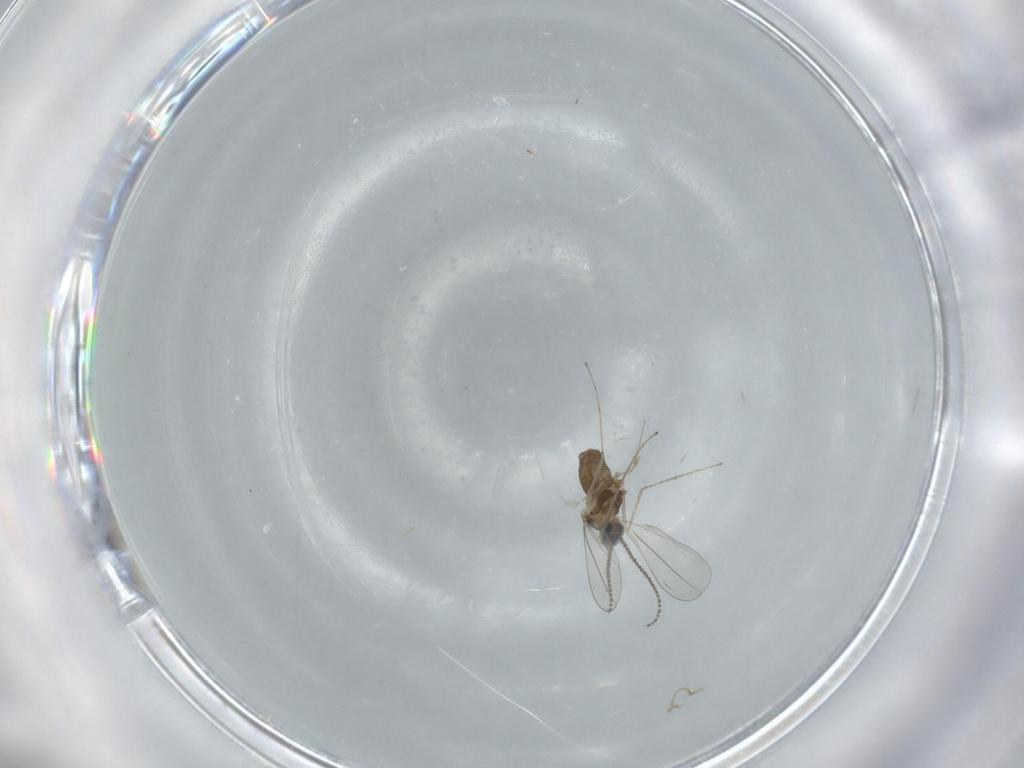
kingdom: Animalia
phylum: Arthropoda
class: Insecta
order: Diptera
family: Cecidomyiidae
